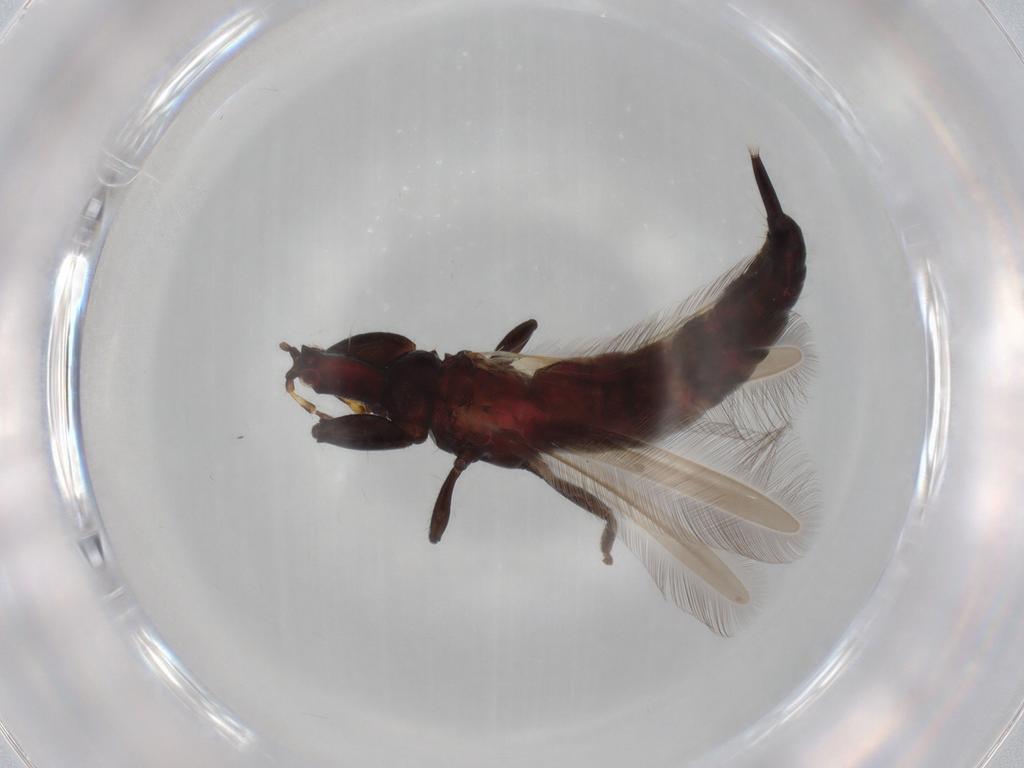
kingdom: Animalia
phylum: Arthropoda
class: Insecta
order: Thysanoptera
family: Phlaeothripidae
